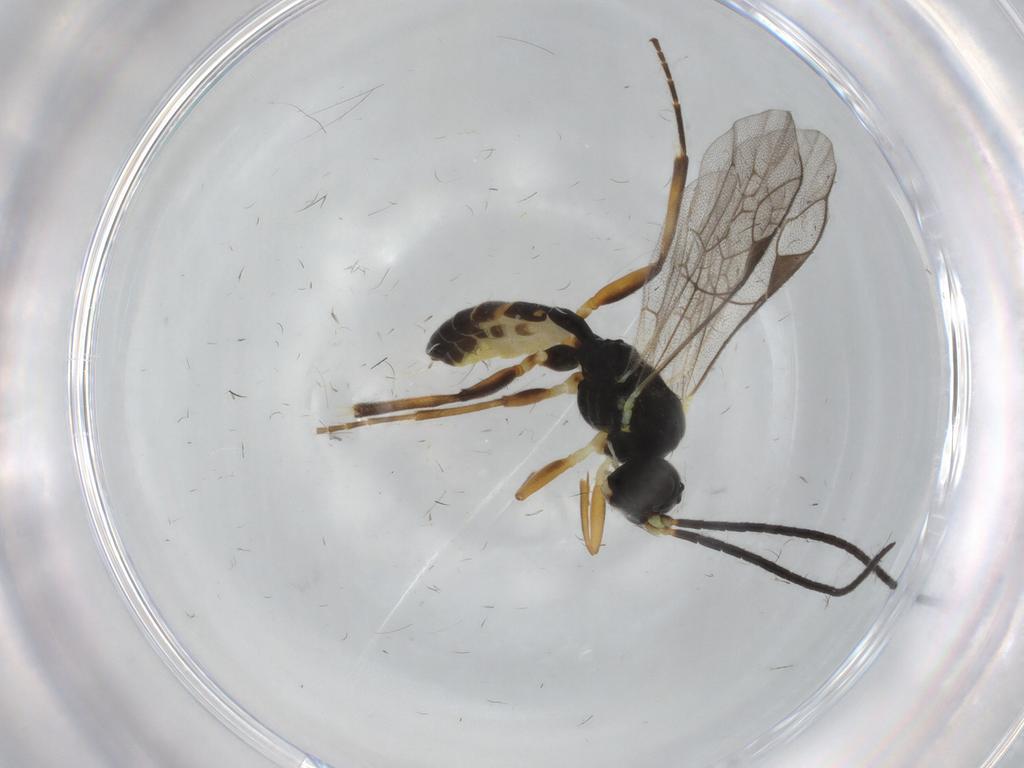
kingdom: Animalia
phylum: Arthropoda
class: Insecta
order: Hymenoptera
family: Ichneumonidae
